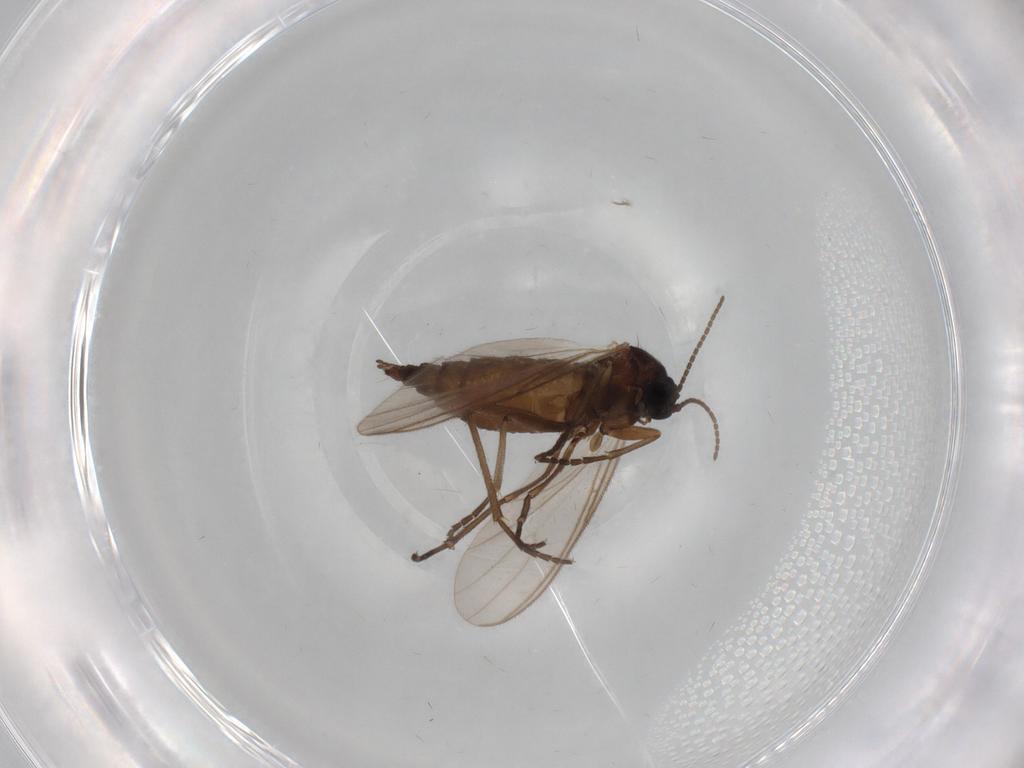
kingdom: Animalia
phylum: Arthropoda
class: Insecta
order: Diptera
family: Sciaridae
